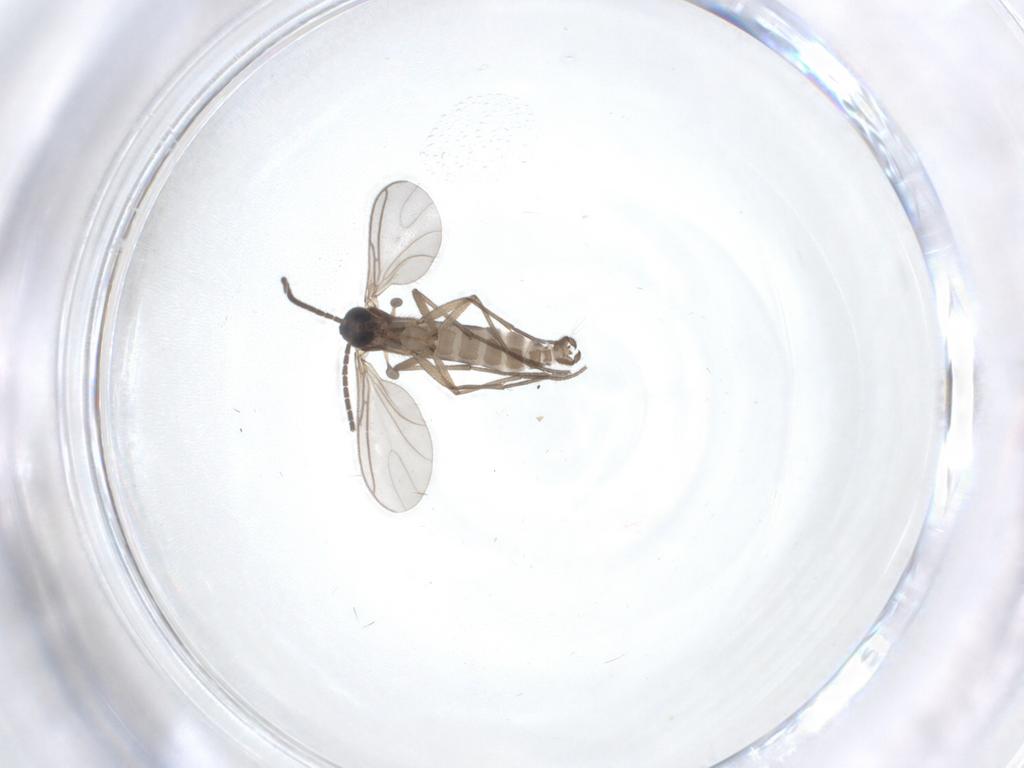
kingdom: Animalia
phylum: Arthropoda
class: Insecta
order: Diptera
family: Sciaridae
